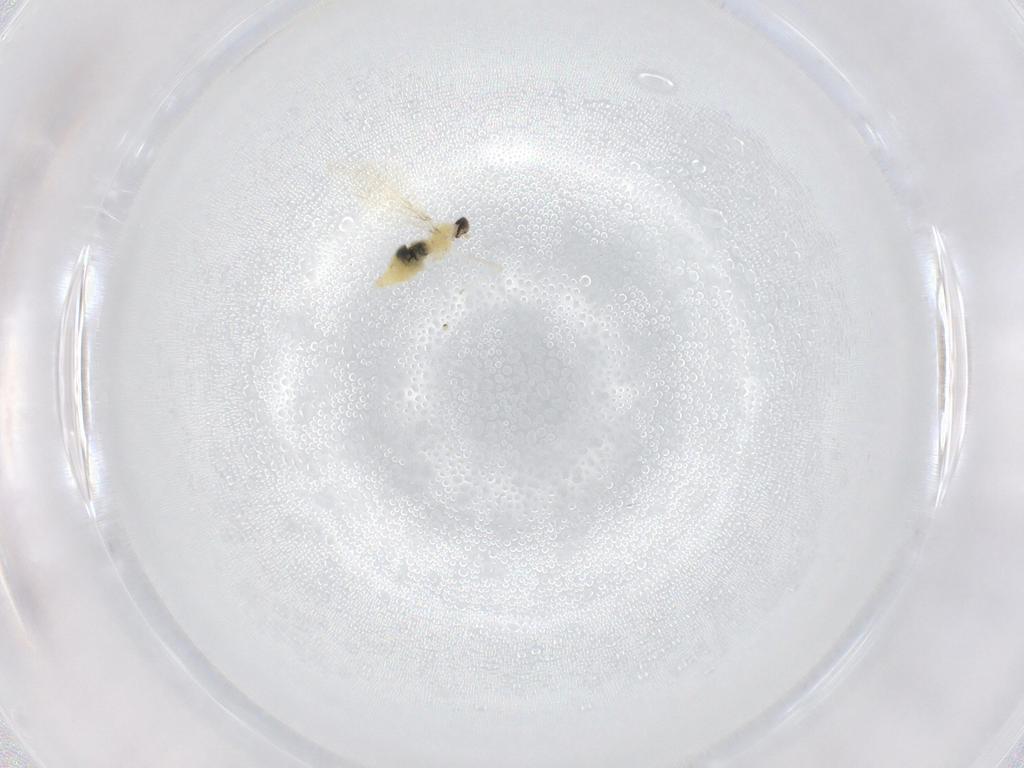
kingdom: Animalia
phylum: Arthropoda
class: Insecta
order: Diptera
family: Cecidomyiidae
